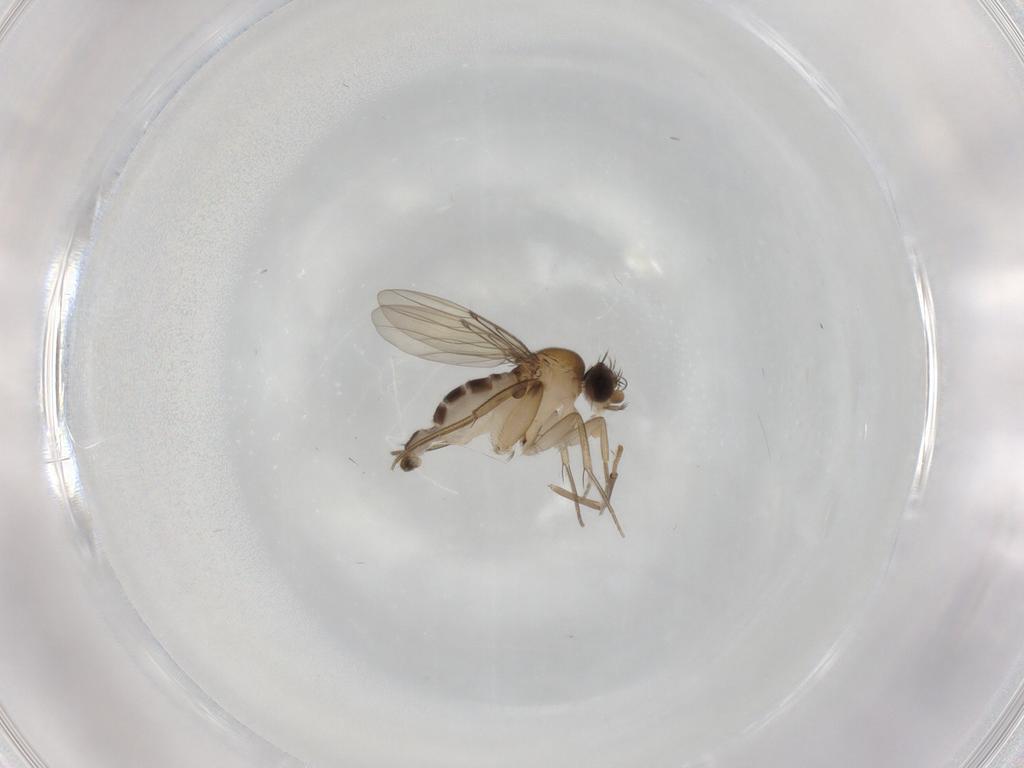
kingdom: Animalia
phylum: Arthropoda
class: Insecta
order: Diptera
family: Phoridae
